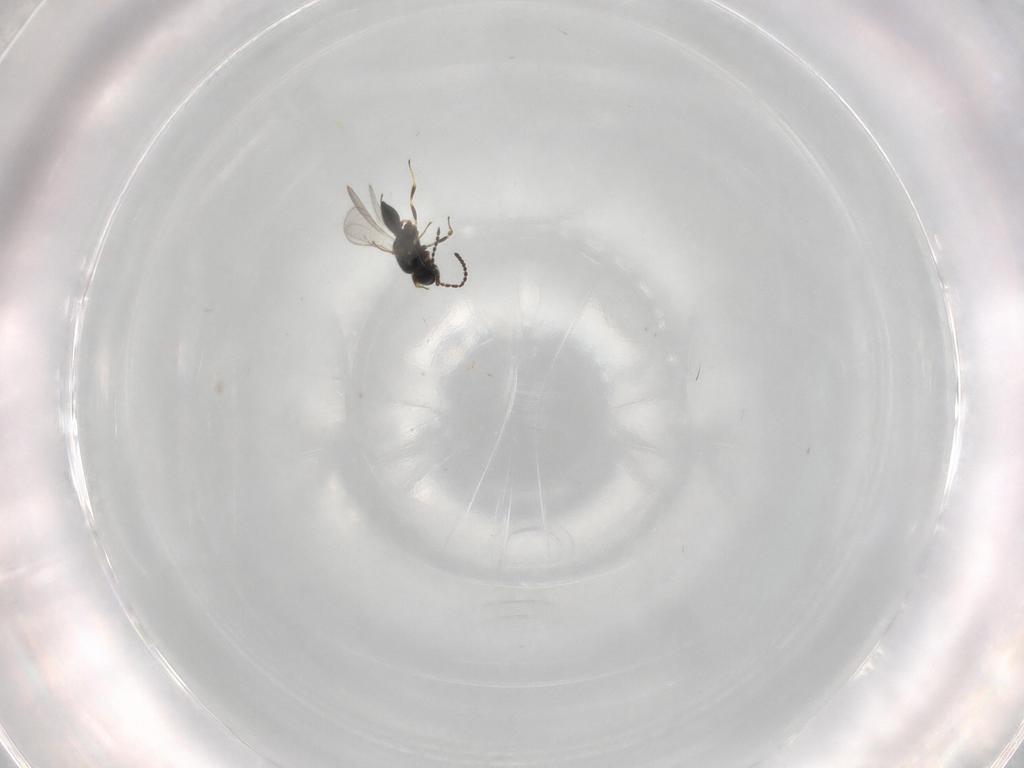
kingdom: Animalia
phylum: Arthropoda
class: Insecta
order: Hymenoptera
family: Scelionidae
